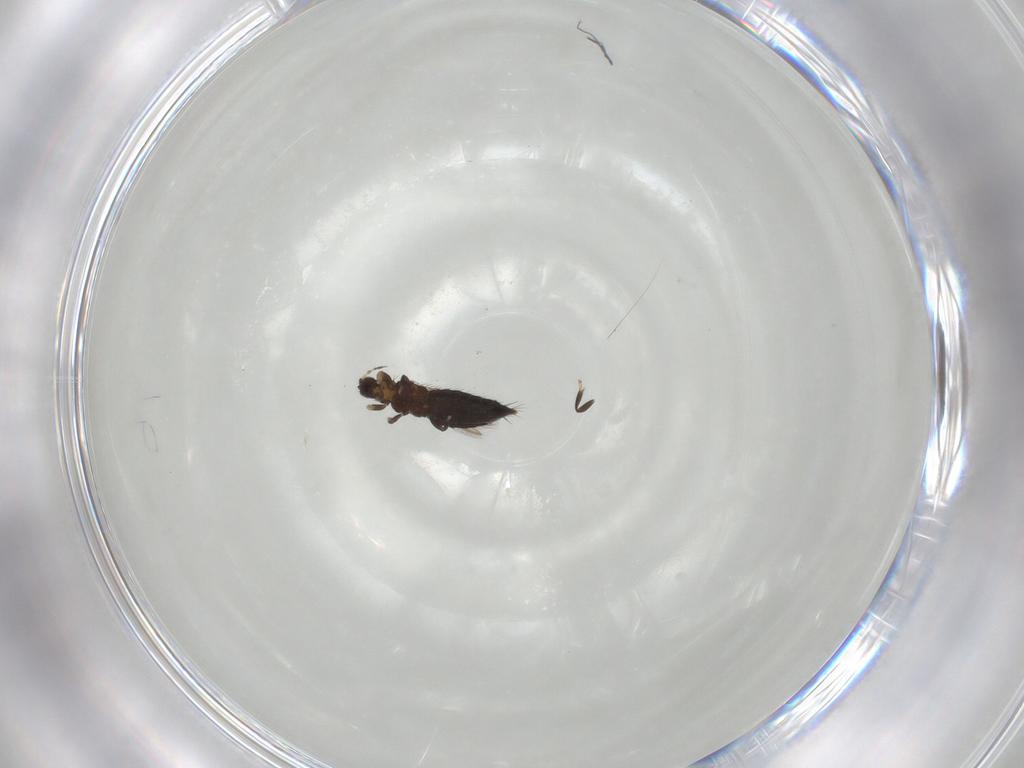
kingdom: Animalia
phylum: Arthropoda
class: Insecta
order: Thysanoptera
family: Thripidae
